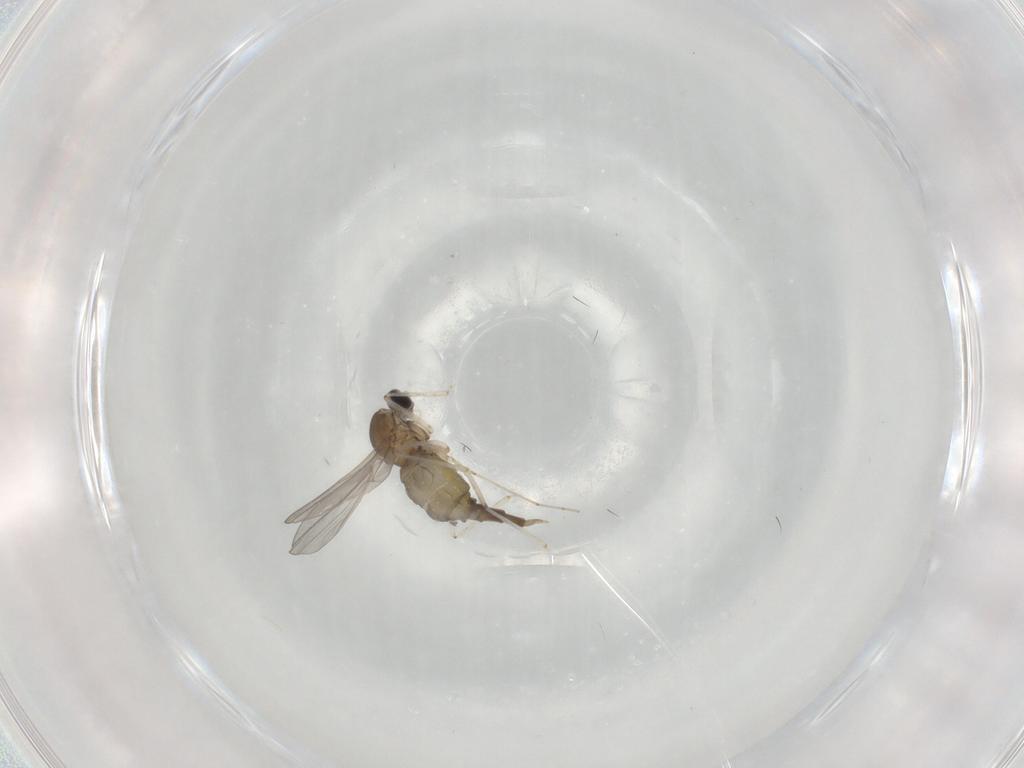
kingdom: Animalia
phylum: Arthropoda
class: Insecta
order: Diptera
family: Cecidomyiidae
